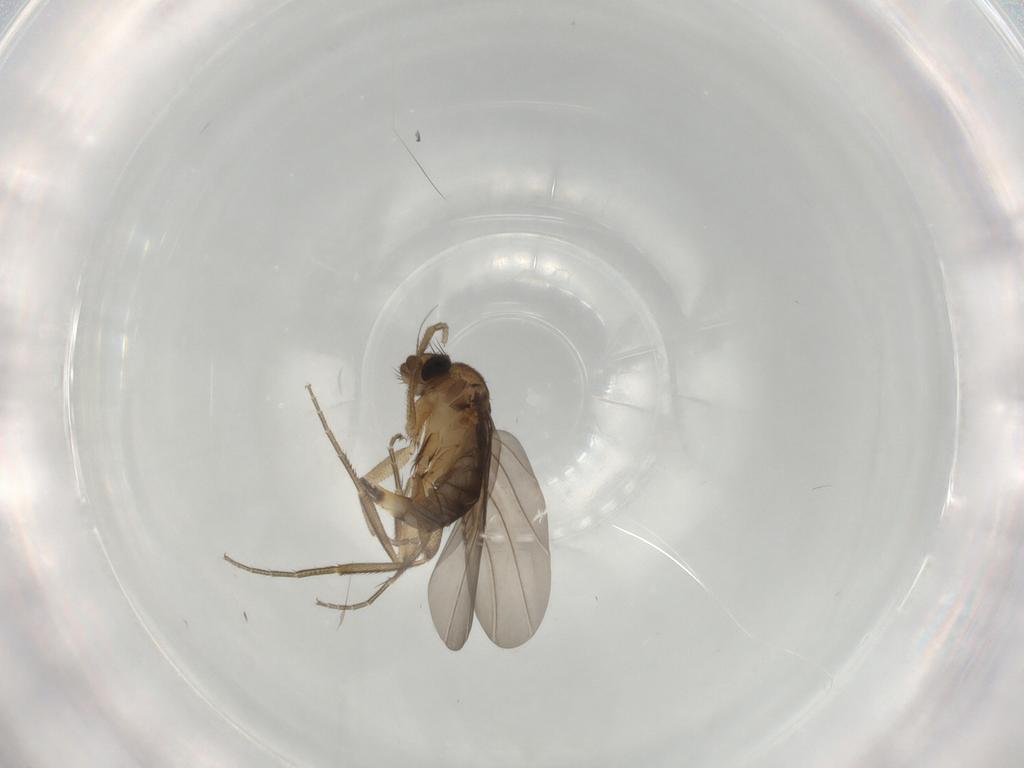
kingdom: Animalia
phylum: Arthropoda
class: Insecta
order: Diptera
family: Phoridae
